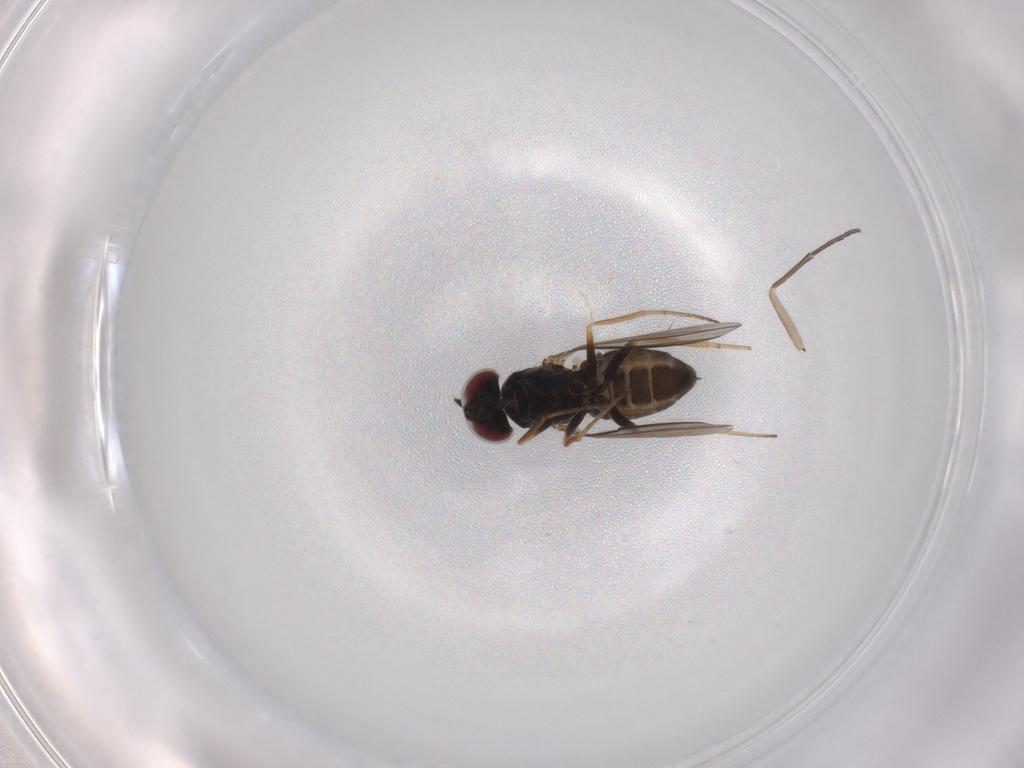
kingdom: Animalia
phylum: Arthropoda
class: Insecta
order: Diptera
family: Dolichopodidae
